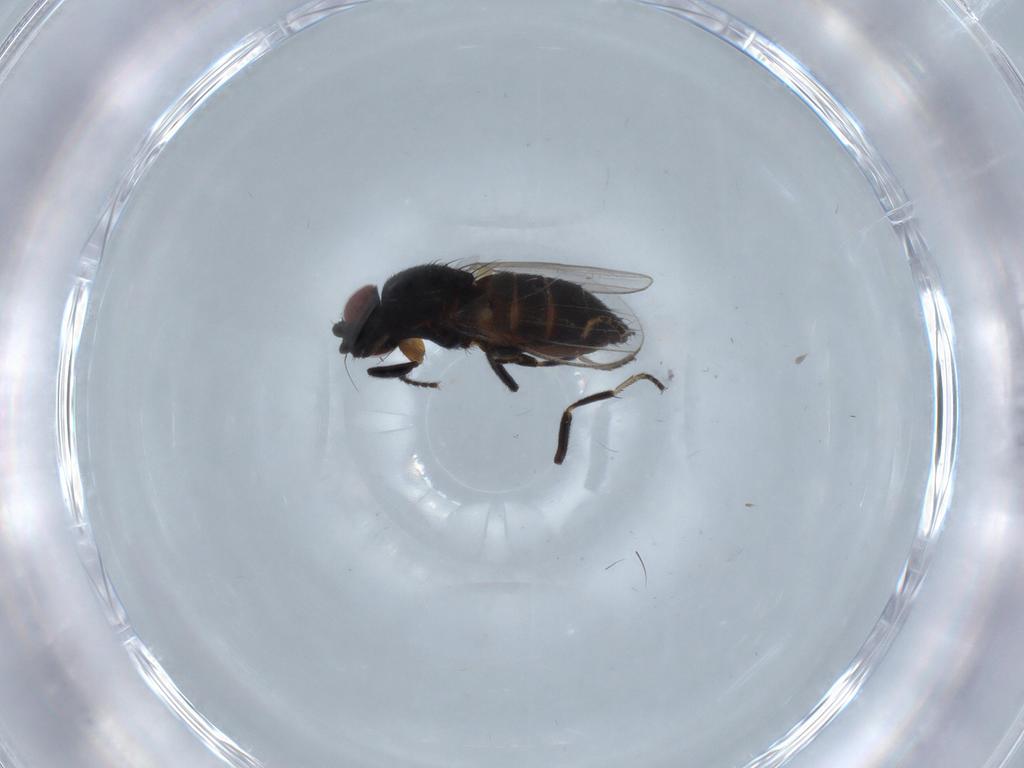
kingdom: Animalia
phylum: Arthropoda
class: Insecta
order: Diptera
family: Milichiidae
